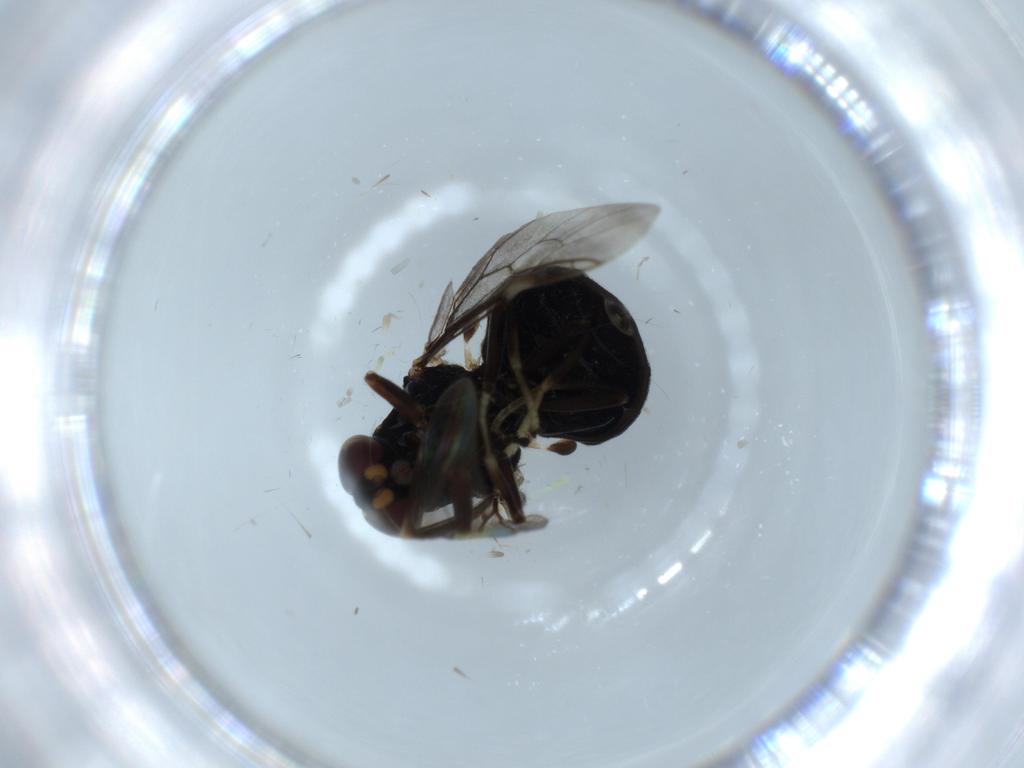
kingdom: Animalia
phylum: Arthropoda
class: Insecta
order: Diptera
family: Stratiomyidae
